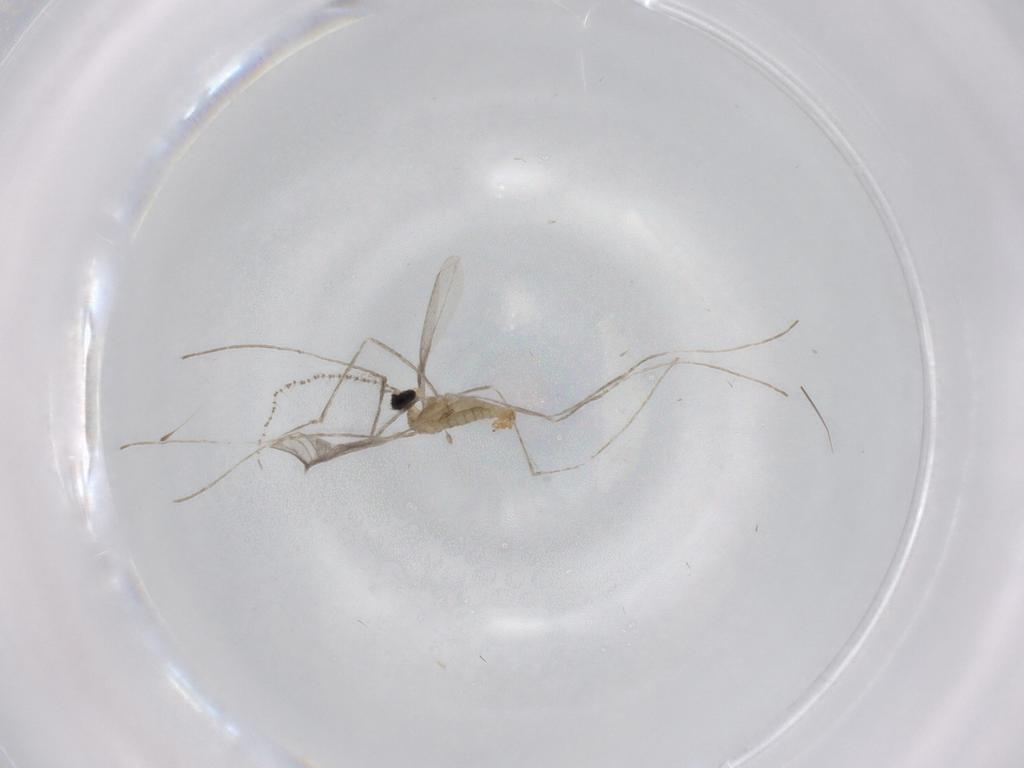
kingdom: Animalia
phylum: Arthropoda
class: Insecta
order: Diptera
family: Cecidomyiidae
